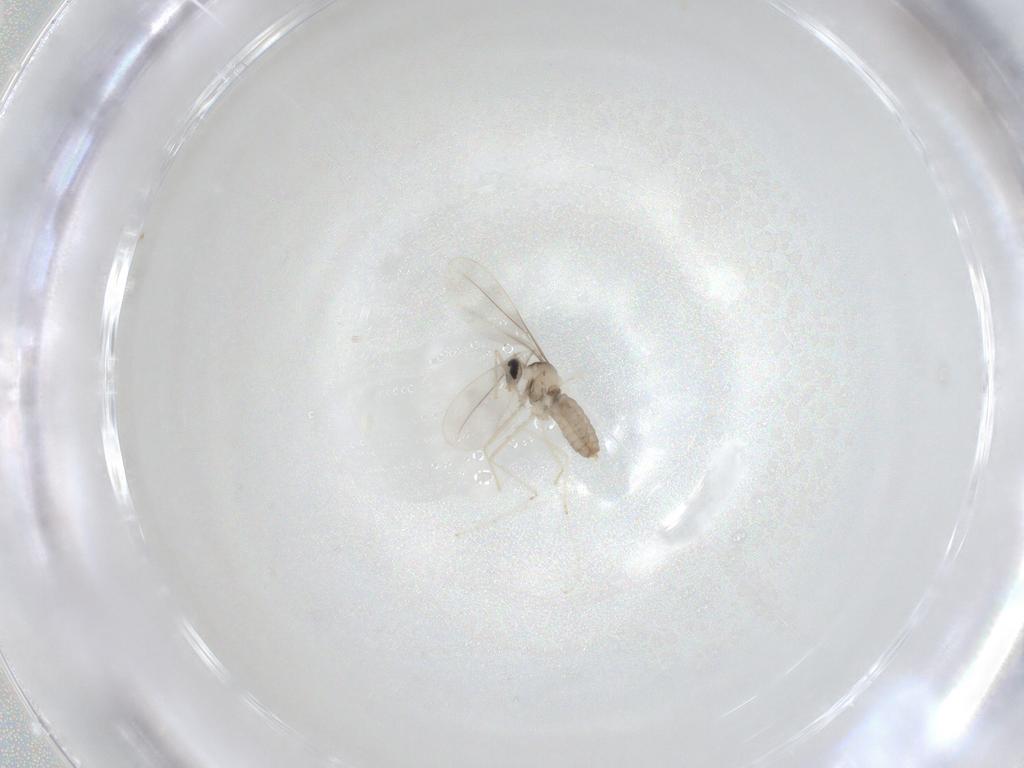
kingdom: Animalia
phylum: Arthropoda
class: Insecta
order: Diptera
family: Cecidomyiidae
